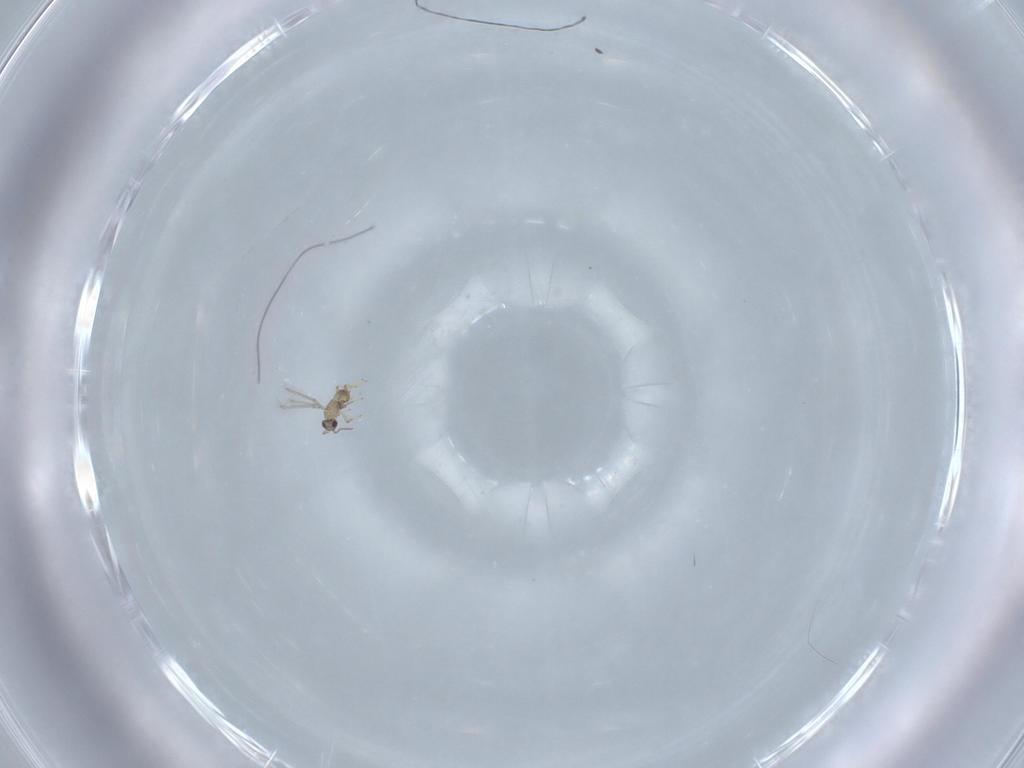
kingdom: Animalia
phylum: Arthropoda
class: Insecta
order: Hymenoptera
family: Mymaridae
